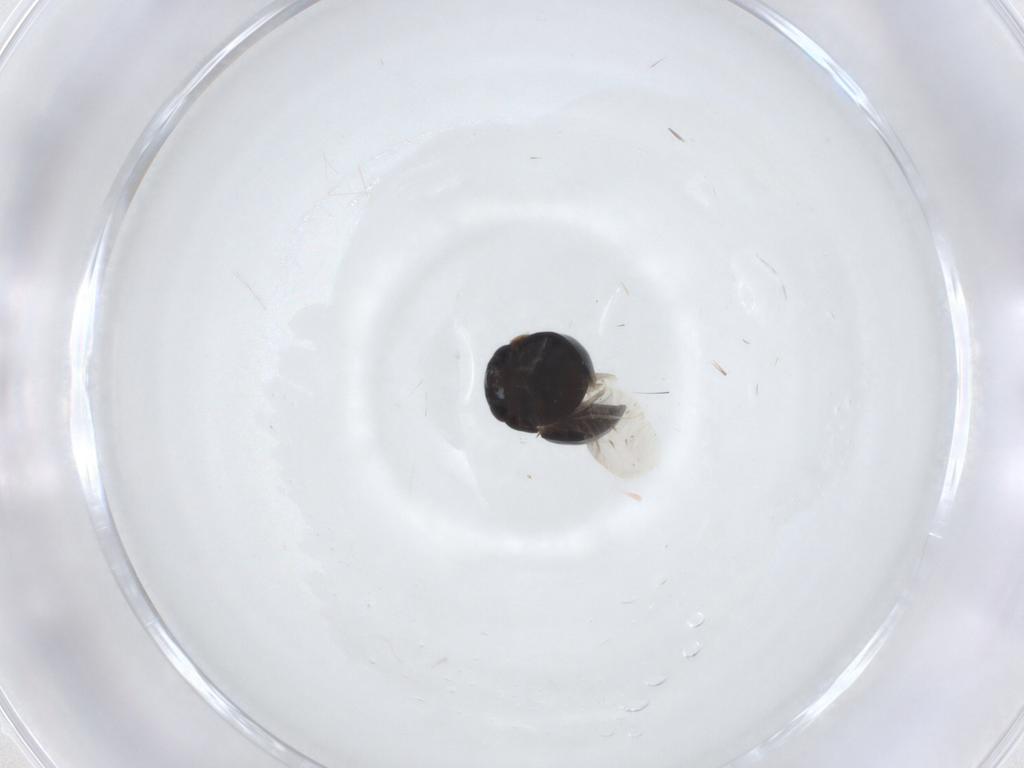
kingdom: Animalia
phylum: Arthropoda
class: Insecta
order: Coleoptera
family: Cybocephalidae
